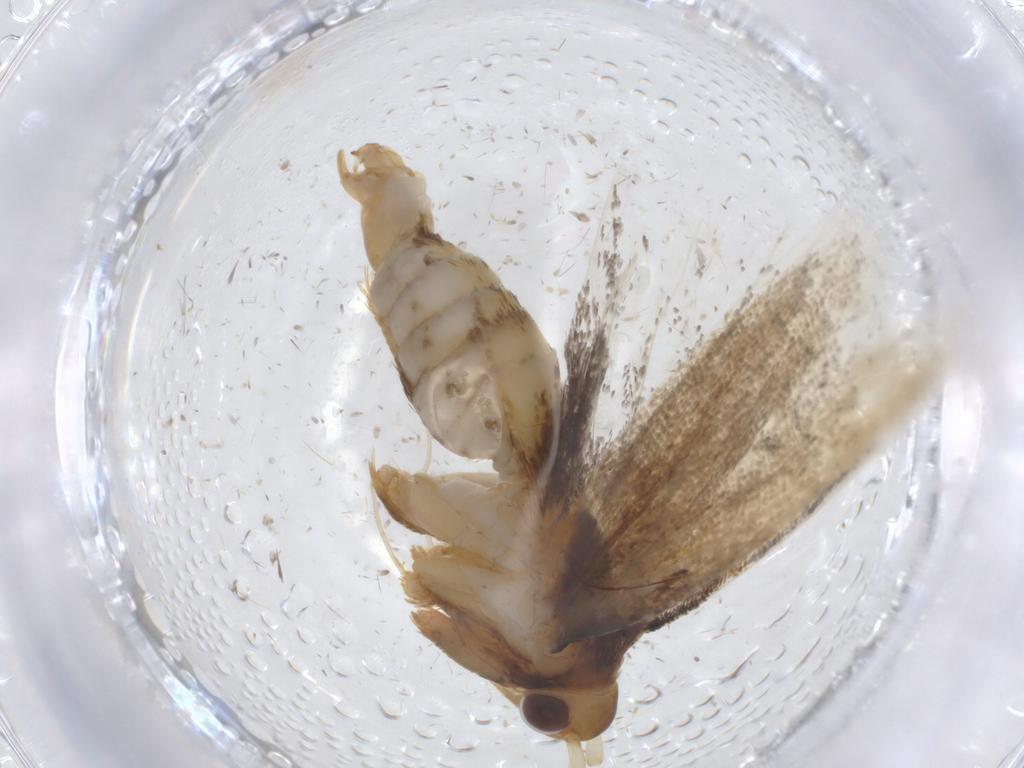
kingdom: Animalia
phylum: Arthropoda
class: Insecta
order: Lepidoptera
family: Lecithoceridae
